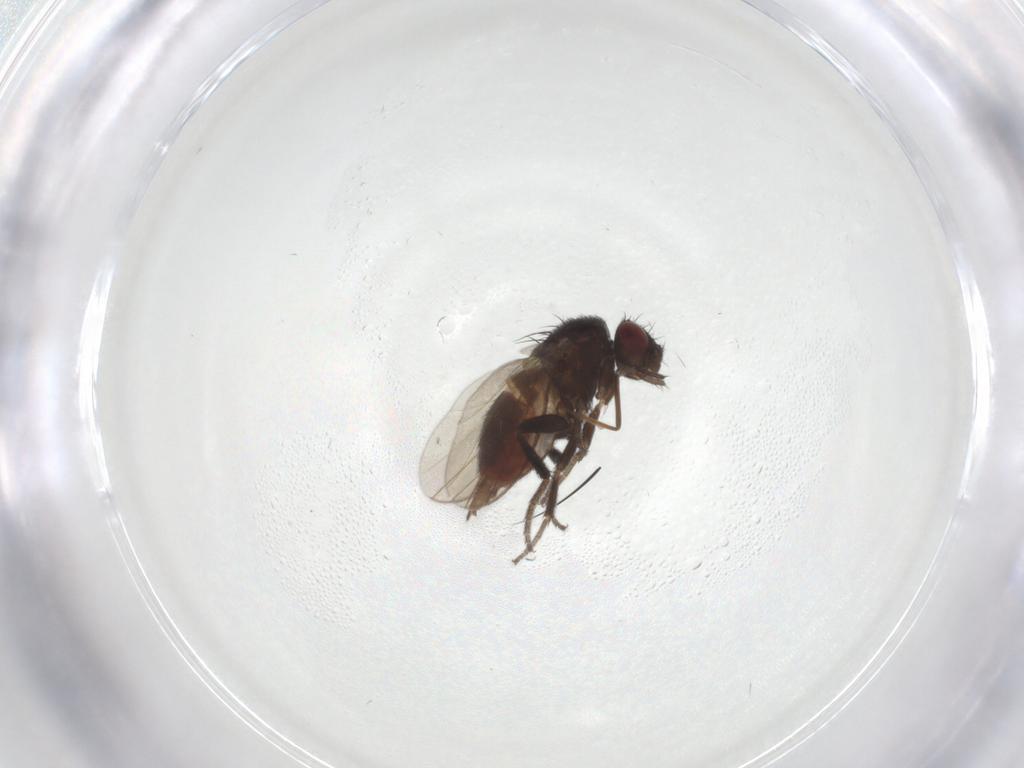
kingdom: Animalia
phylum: Arthropoda
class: Insecta
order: Diptera
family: Milichiidae
